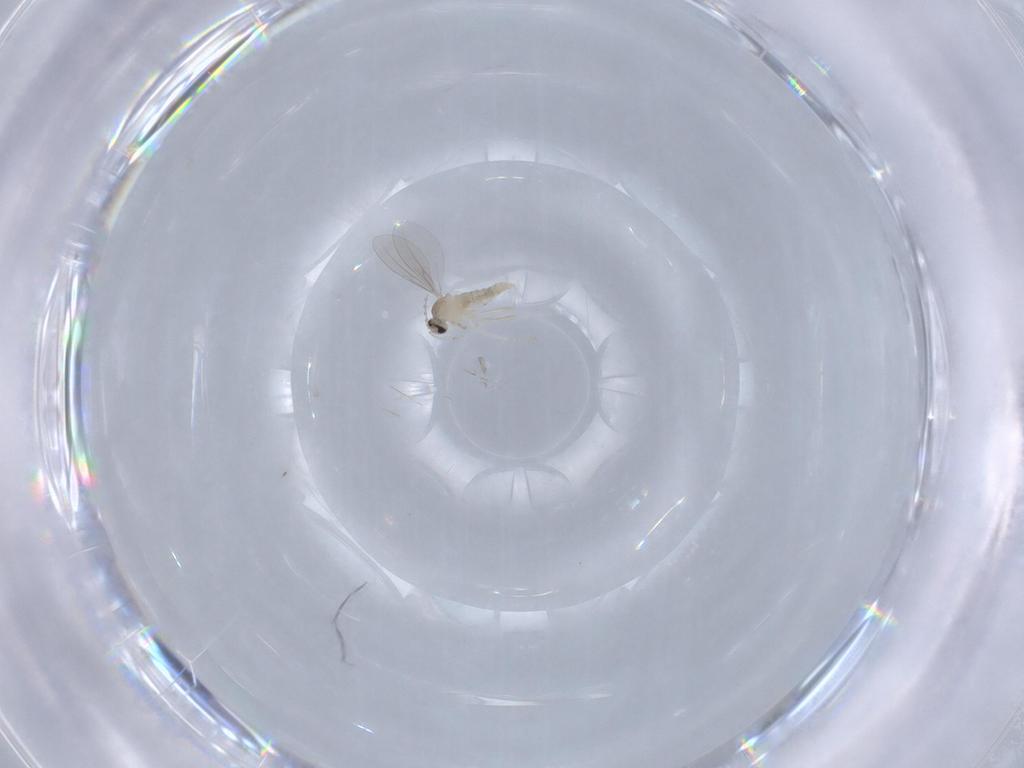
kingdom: Animalia
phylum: Arthropoda
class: Insecta
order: Diptera
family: Cecidomyiidae
